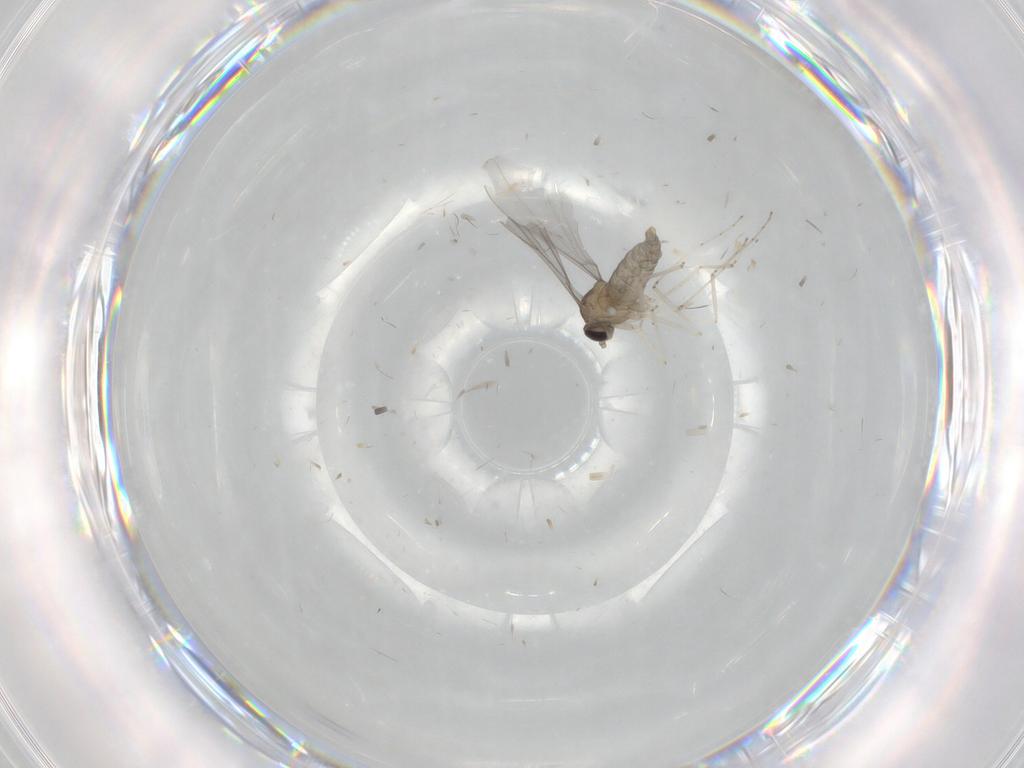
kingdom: Animalia
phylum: Arthropoda
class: Insecta
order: Diptera
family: Cecidomyiidae
